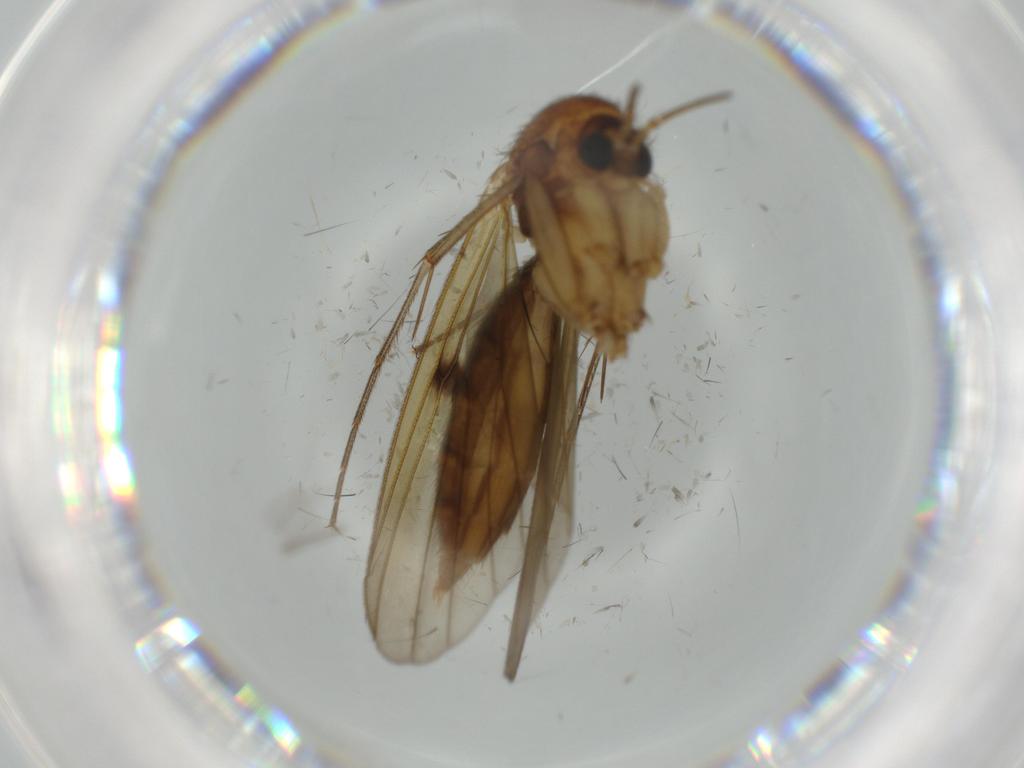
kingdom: Animalia
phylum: Arthropoda
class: Insecta
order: Diptera
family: Mycetophilidae
